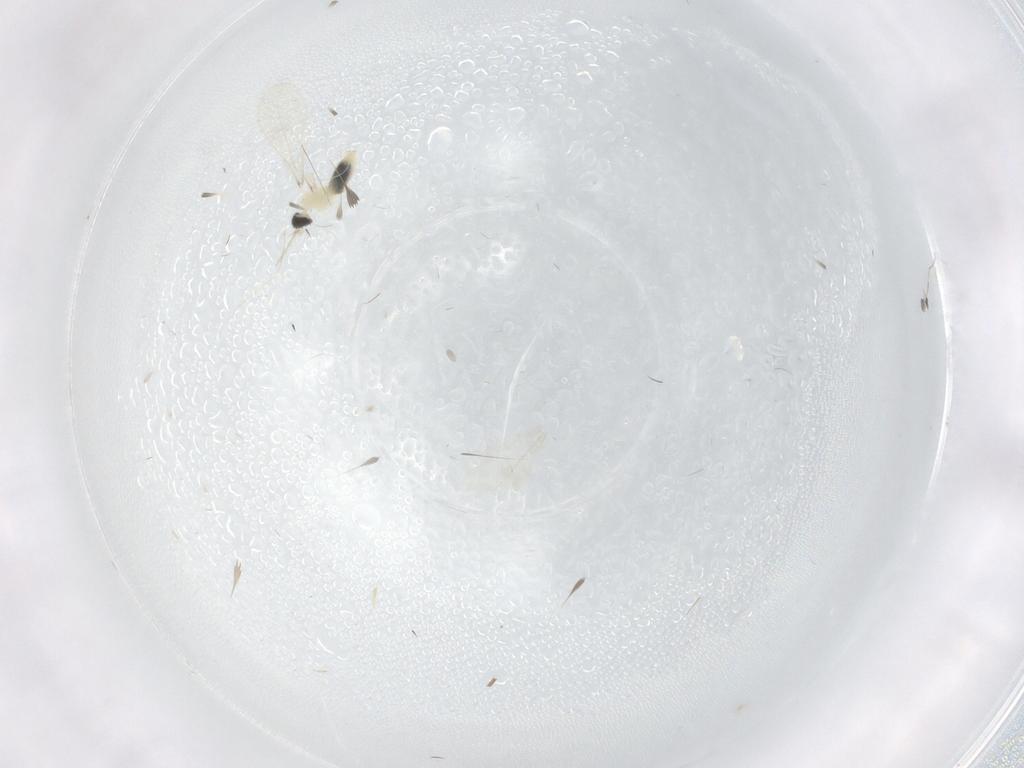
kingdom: Animalia
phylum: Arthropoda
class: Insecta
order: Diptera
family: Cecidomyiidae
